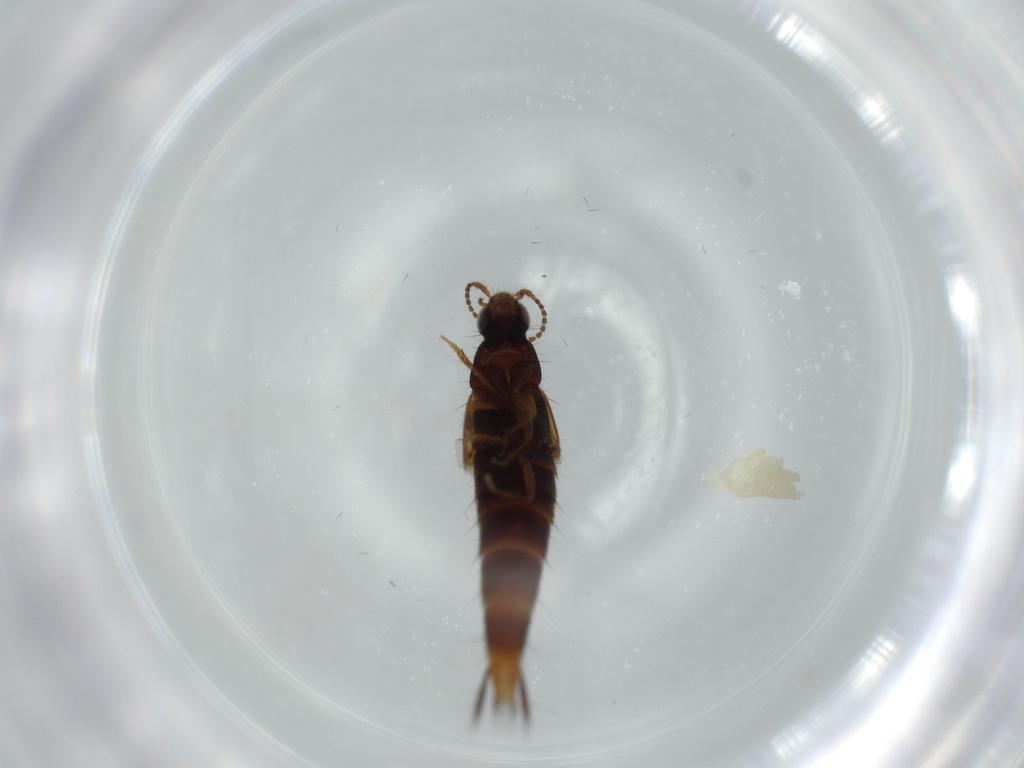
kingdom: Animalia
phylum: Arthropoda
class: Insecta
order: Coleoptera
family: Staphylinidae
